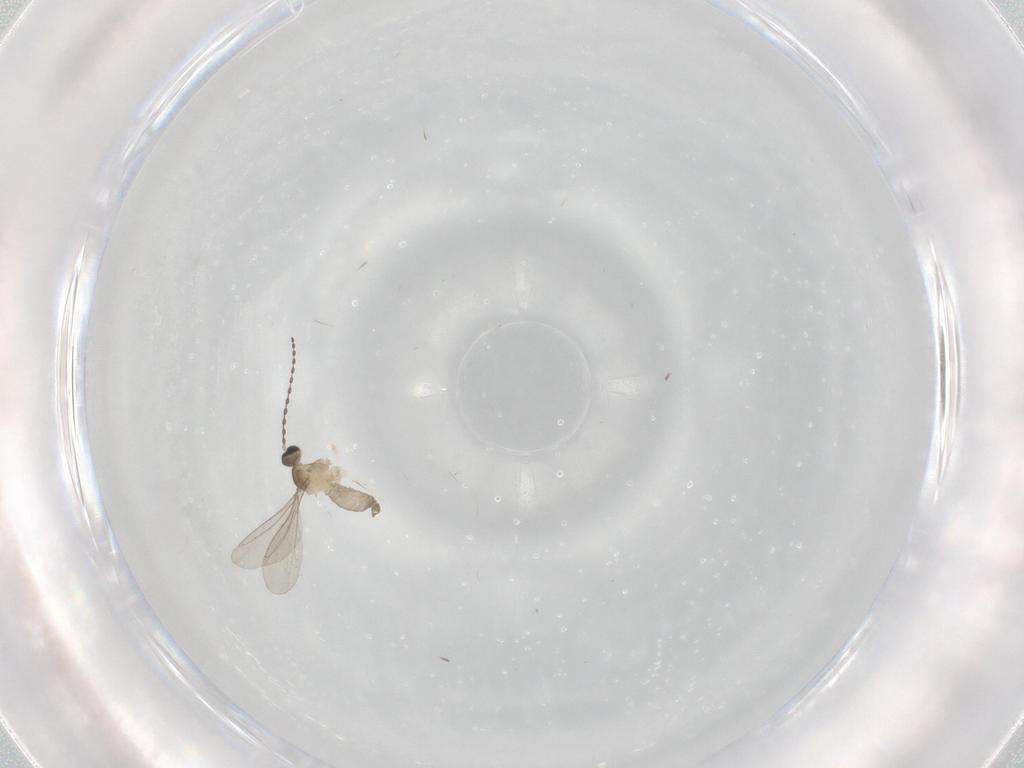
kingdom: Animalia
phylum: Arthropoda
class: Insecta
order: Diptera
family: Cecidomyiidae
